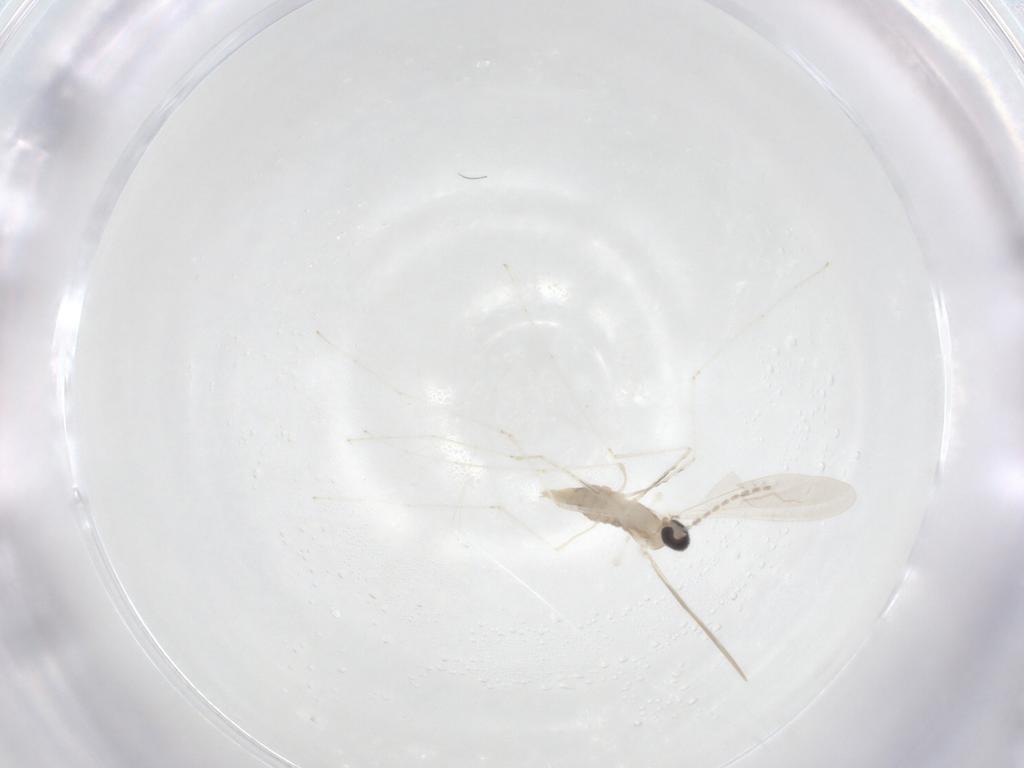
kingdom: Animalia
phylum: Arthropoda
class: Insecta
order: Diptera
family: Cecidomyiidae
